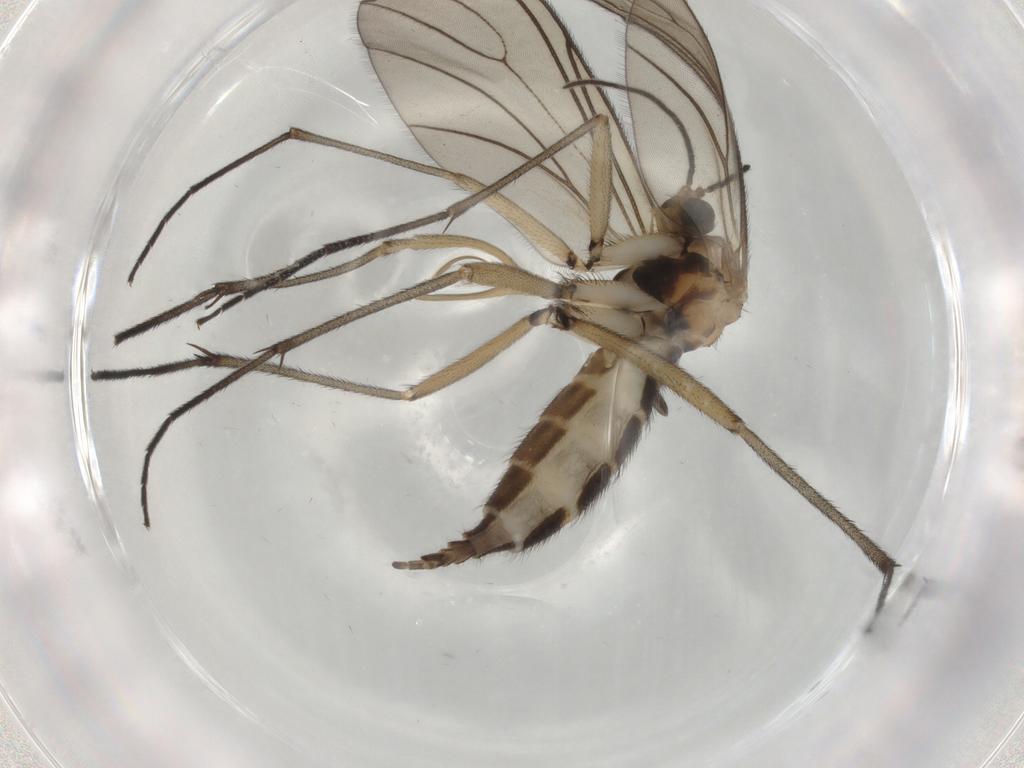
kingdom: Animalia
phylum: Arthropoda
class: Insecta
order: Diptera
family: Sciaridae
